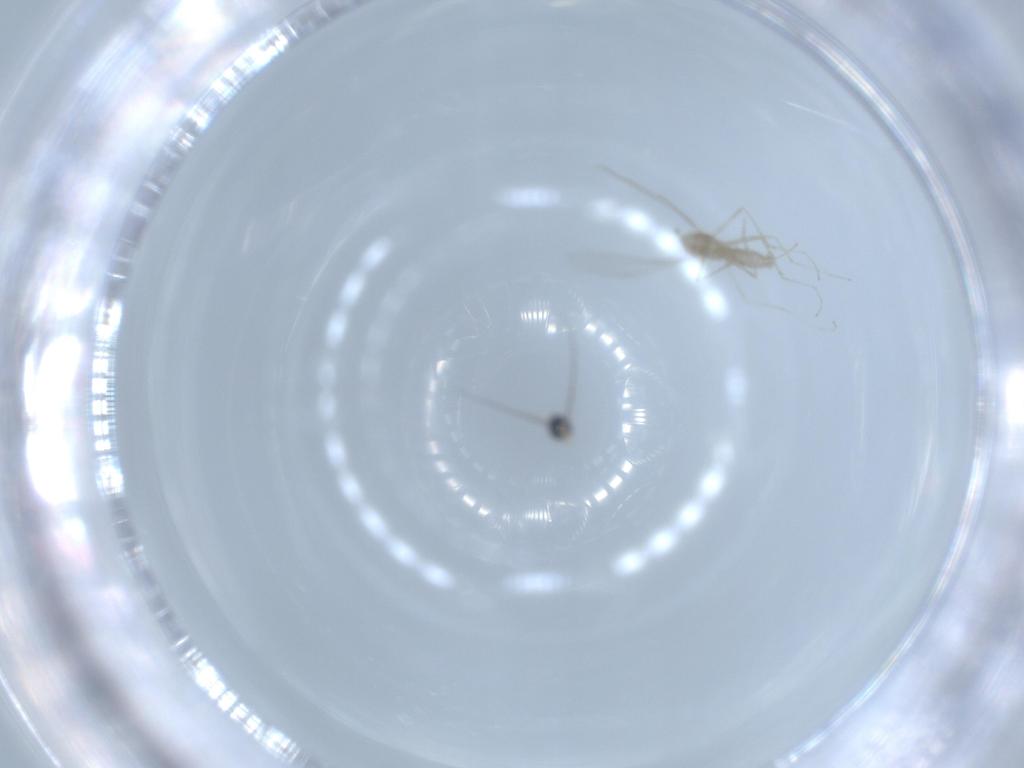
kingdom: Animalia
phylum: Arthropoda
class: Insecta
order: Diptera
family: Cecidomyiidae
